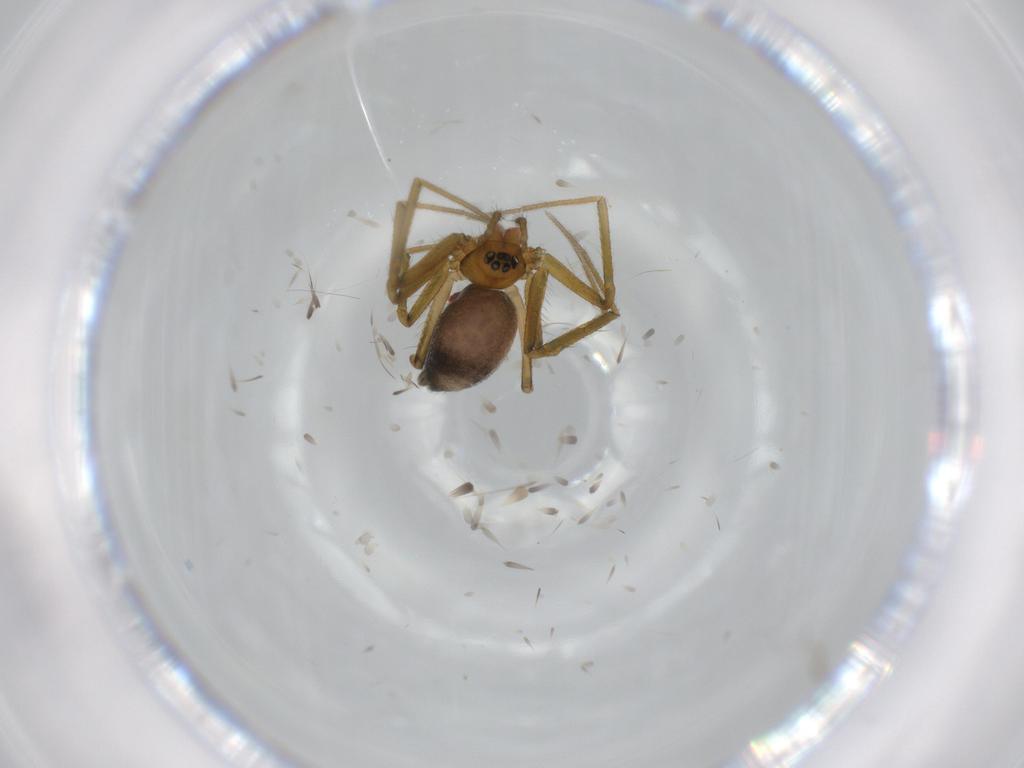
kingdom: Animalia
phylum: Arthropoda
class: Arachnida
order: Araneae
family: Linyphiidae
